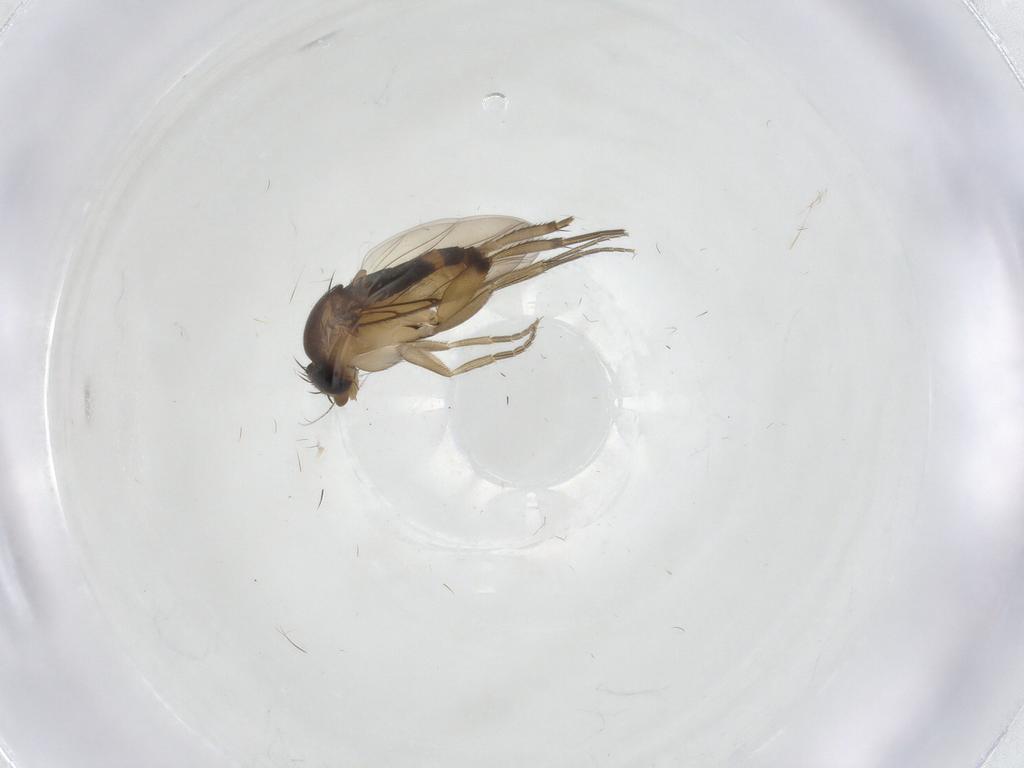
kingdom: Animalia
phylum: Arthropoda
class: Insecta
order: Diptera
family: Phoridae
